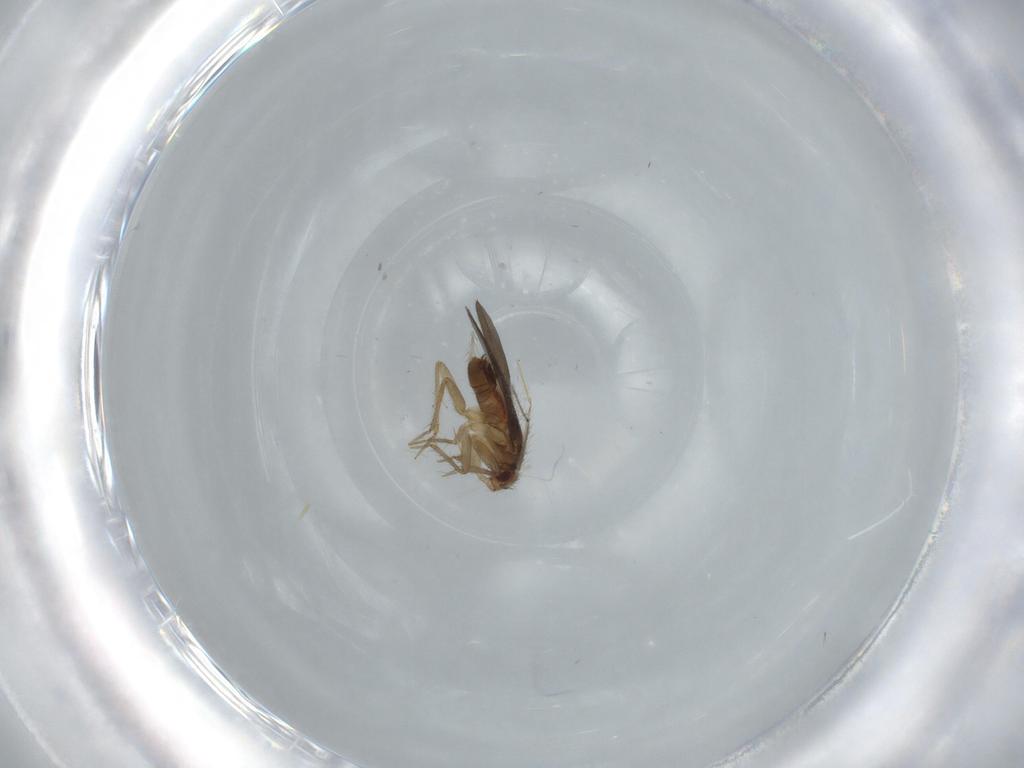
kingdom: Animalia
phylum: Arthropoda
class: Insecta
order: Hemiptera
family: Ceratocombidae
